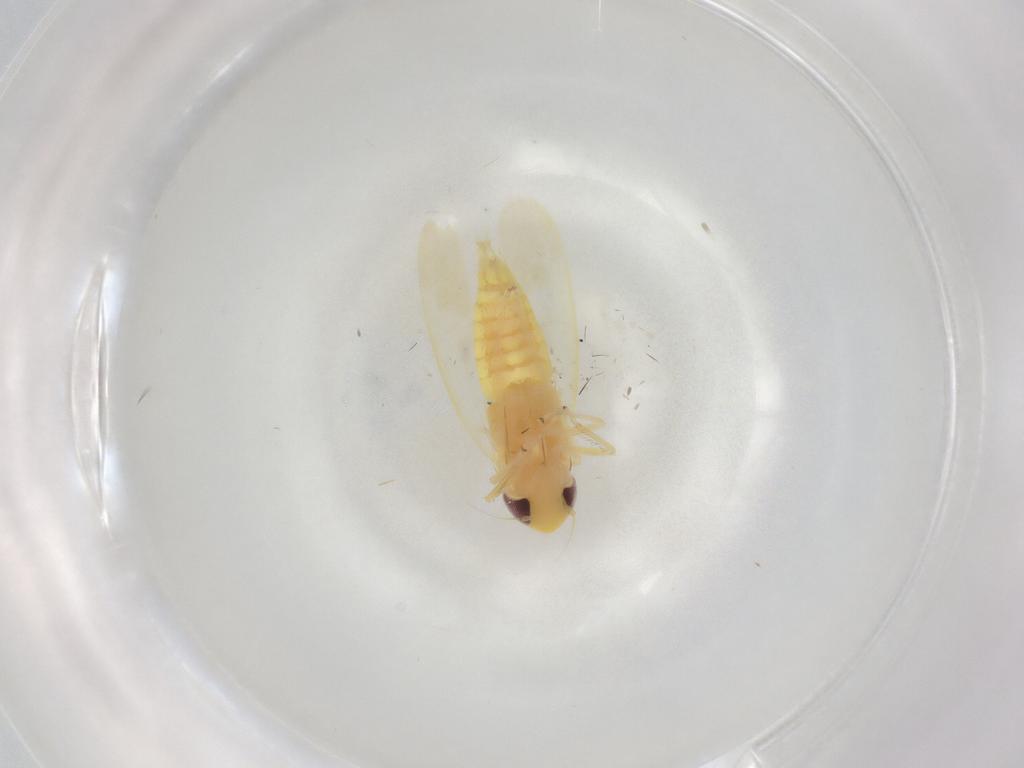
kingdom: Animalia
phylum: Arthropoda
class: Insecta
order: Hemiptera
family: Cicadellidae
